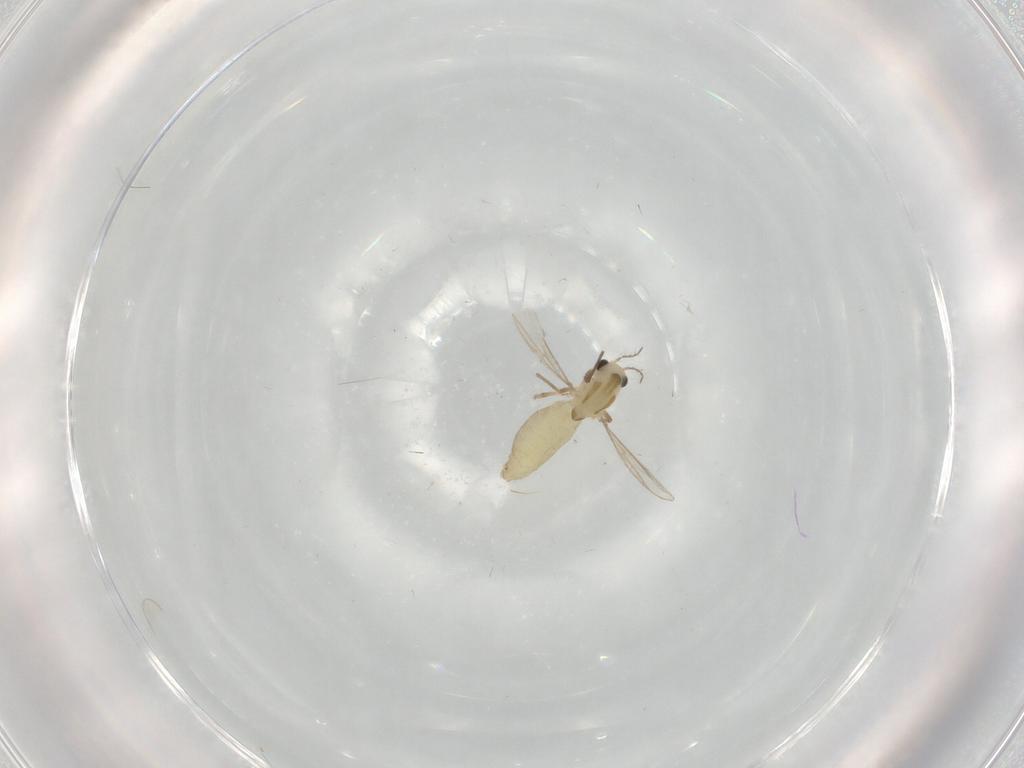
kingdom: Animalia
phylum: Arthropoda
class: Insecta
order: Diptera
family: Chironomidae
